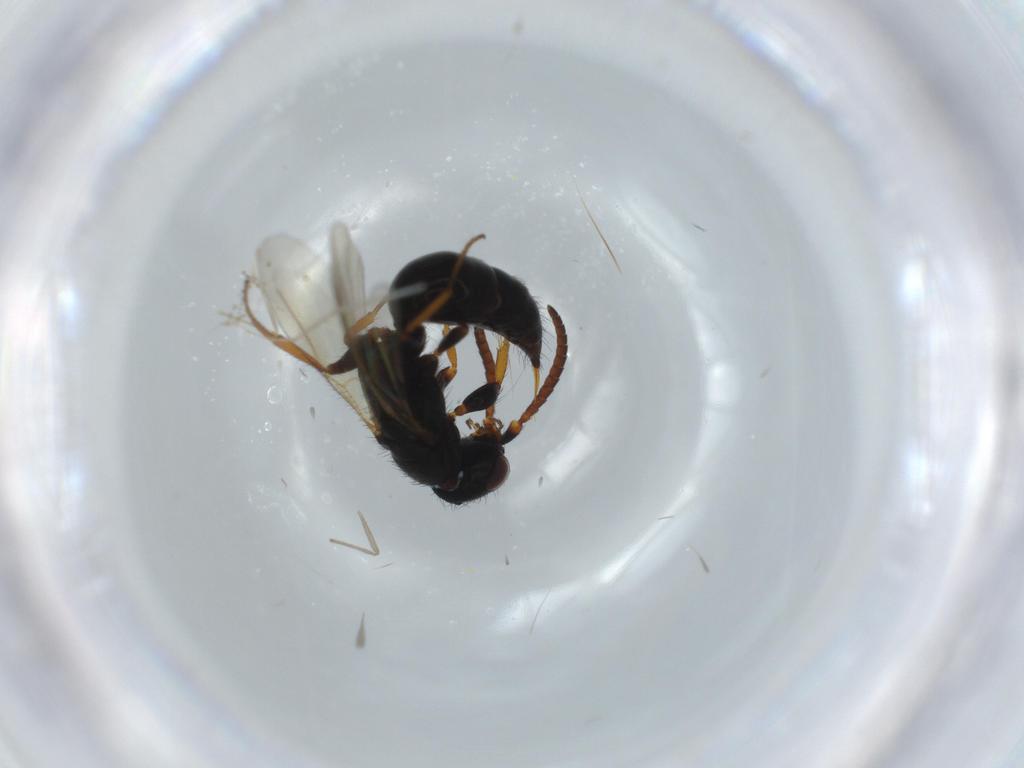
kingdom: Animalia
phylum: Arthropoda
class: Insecta
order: Hymenoptera
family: Bethylidae
